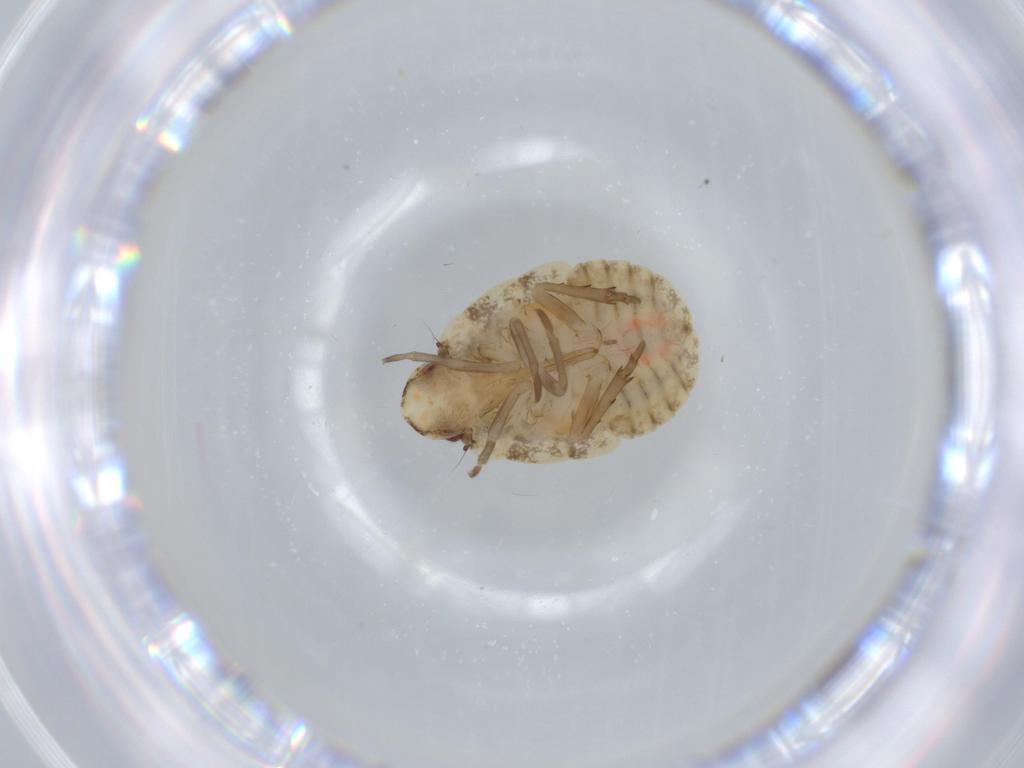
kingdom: Animalia
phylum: Arthropoda
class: Insecta
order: Hemiptera
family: Flatidae
